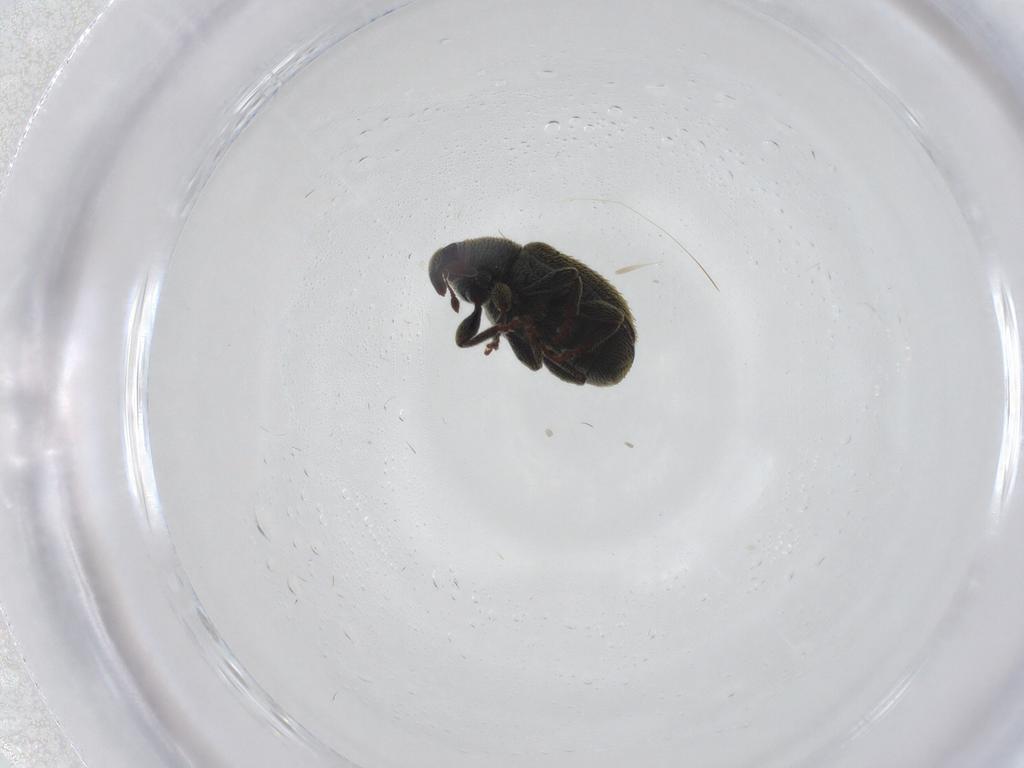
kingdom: Animalia
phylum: Arthropoda
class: Insecta
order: Coleoptera
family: Curculionidae
